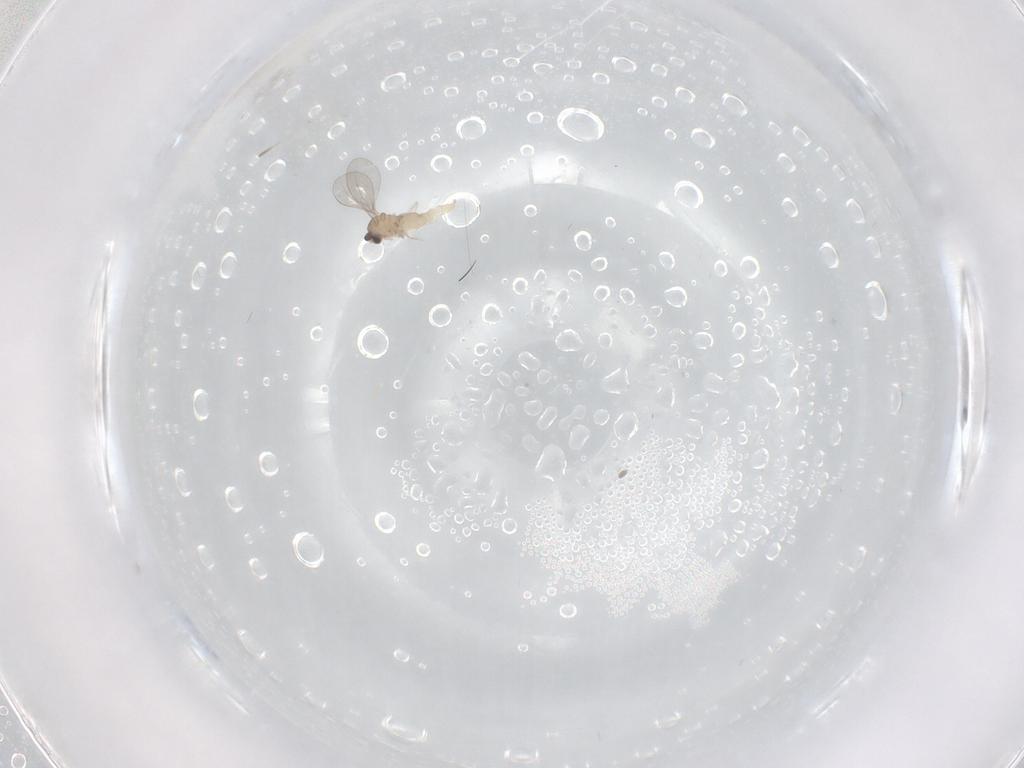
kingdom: Animalia
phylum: Arthropoda
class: Insecta
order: Diptera
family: Cecidomyiidae
